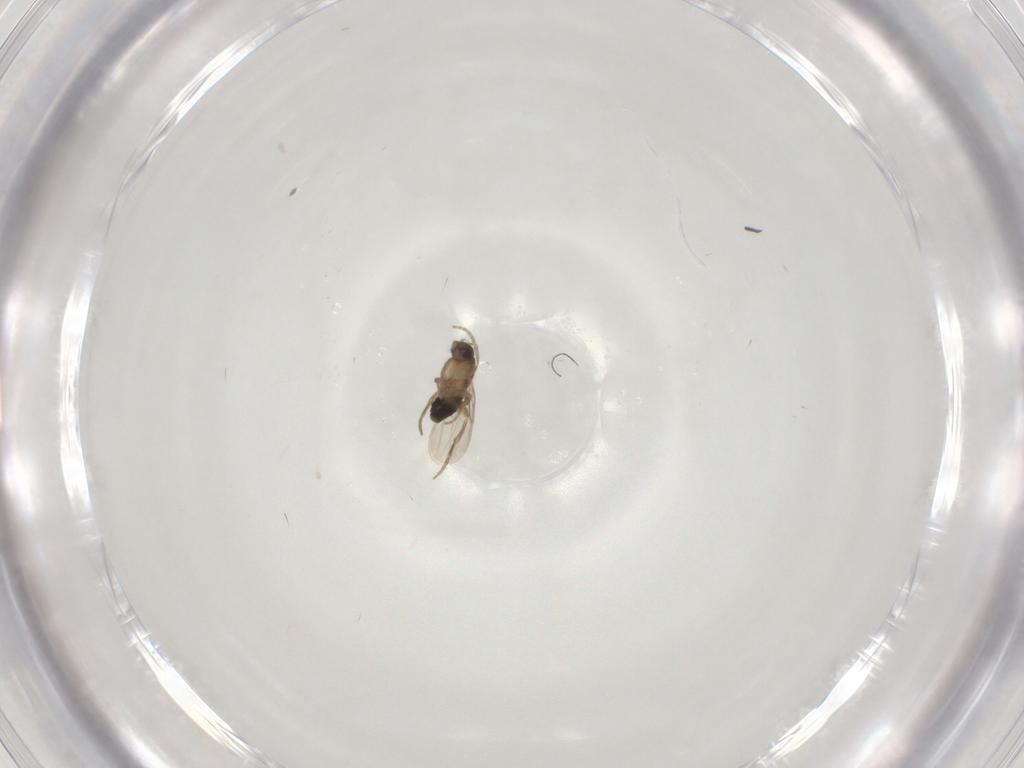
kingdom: Animalia
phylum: Arthropoda
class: Insecta
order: Diptera
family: Phoridae
